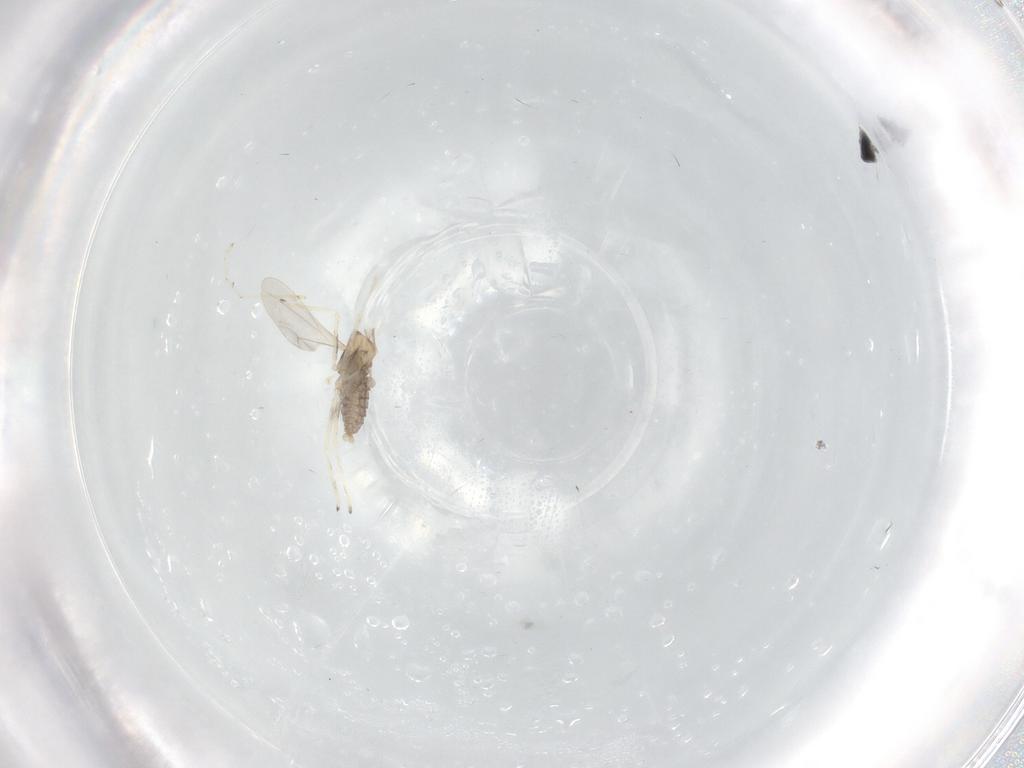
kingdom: Animalia
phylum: Arthropoda
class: Insecta
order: Diptera
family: Cecidomyiidae
